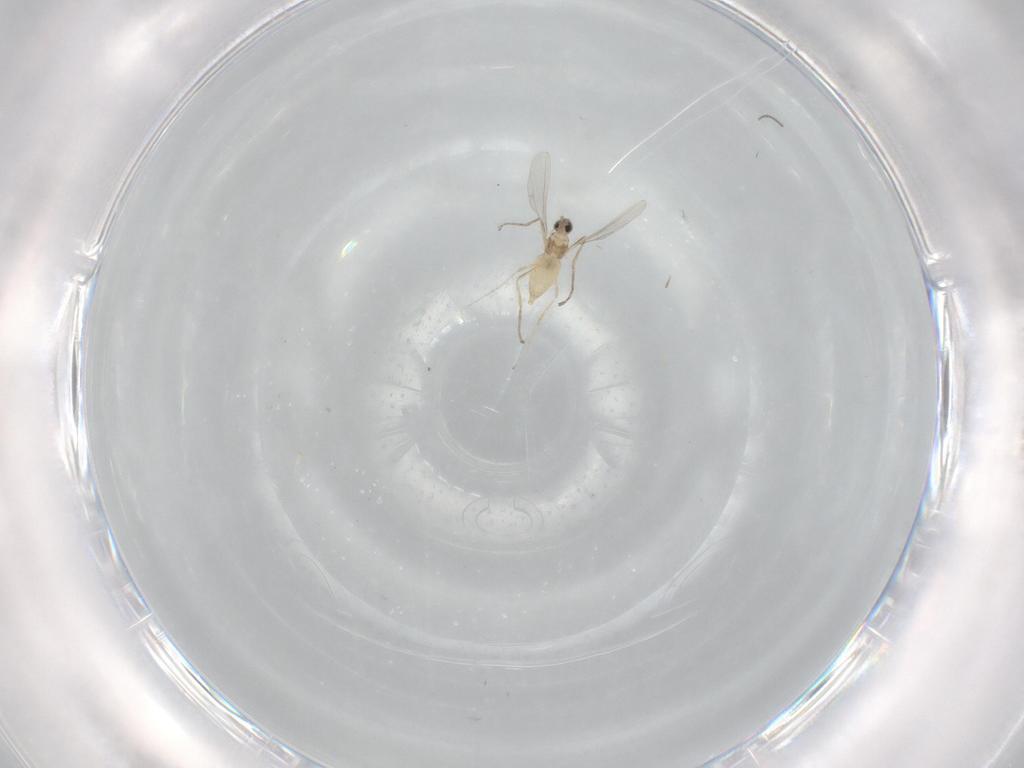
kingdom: Animalia
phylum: Arthropoda
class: Insecta
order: Diptera
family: Cecidomyiidae
